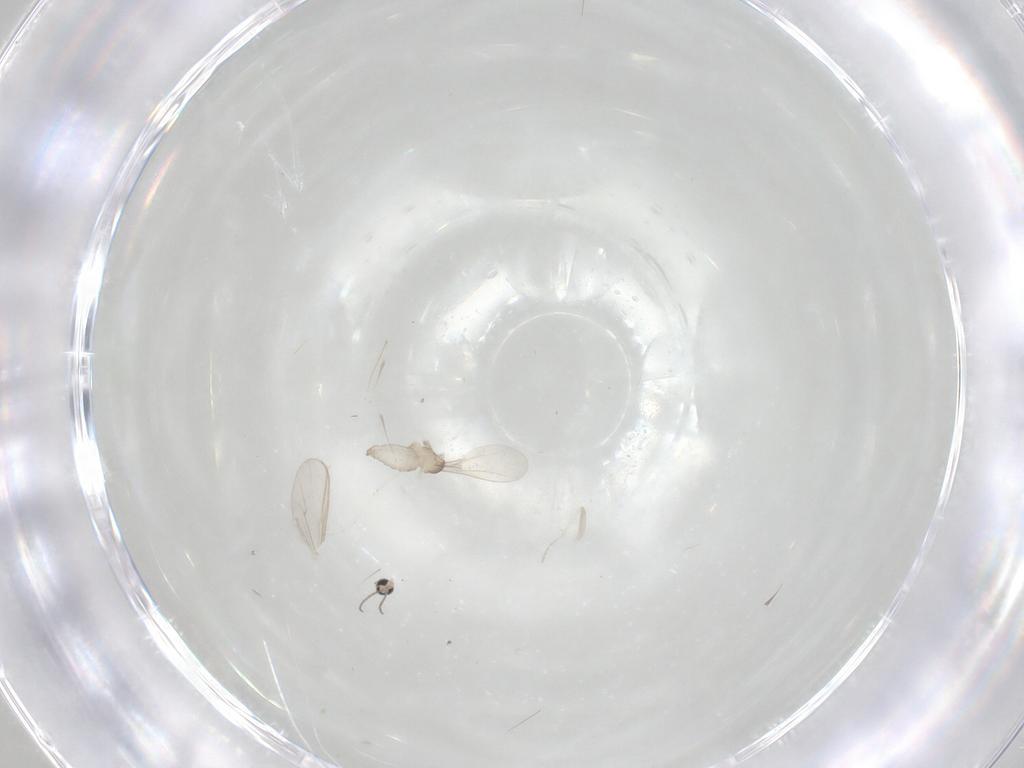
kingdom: Animalia
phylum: Arthropoda
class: Insecta
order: Diptera
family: Chironomidae
